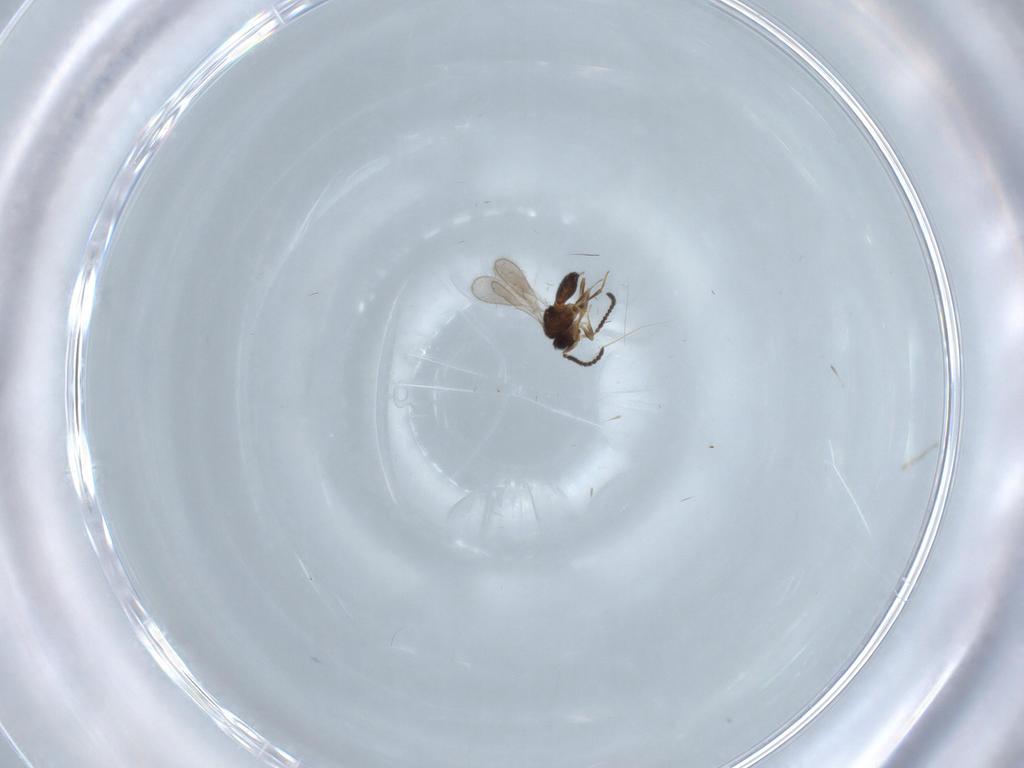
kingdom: Animalia
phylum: Arthropoda
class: Insecta
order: Hymenoptera
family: Scelionidae
